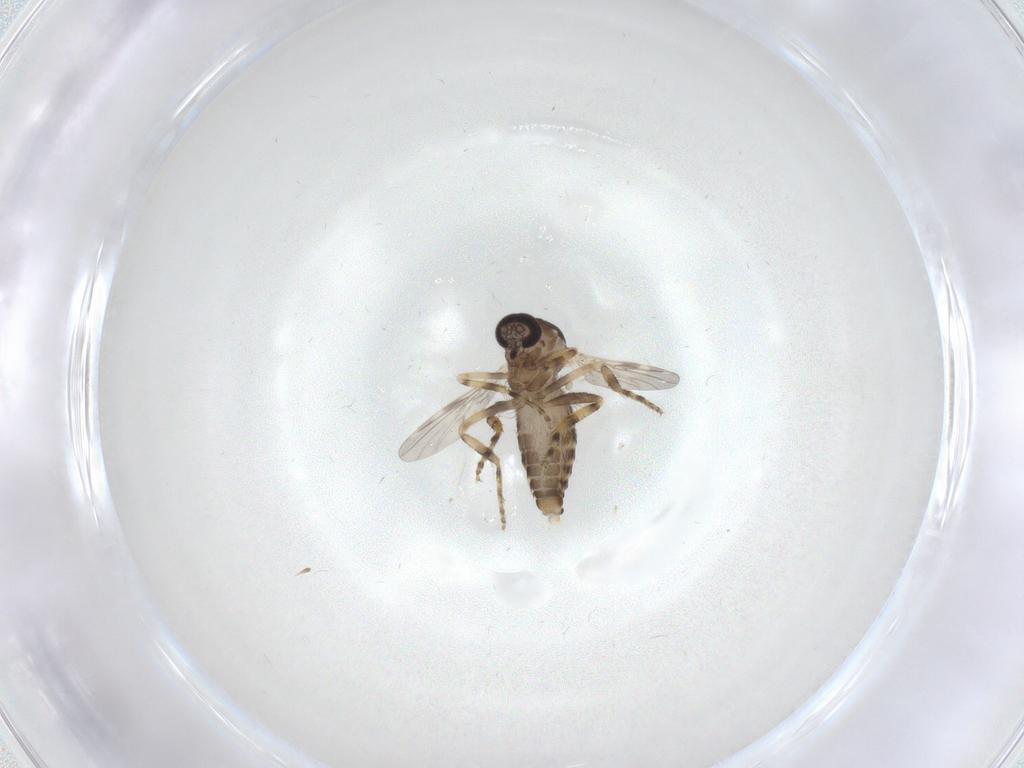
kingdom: Animalia
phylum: Arthropoda
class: Insecta
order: Diptera
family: Ceratopogonidae
